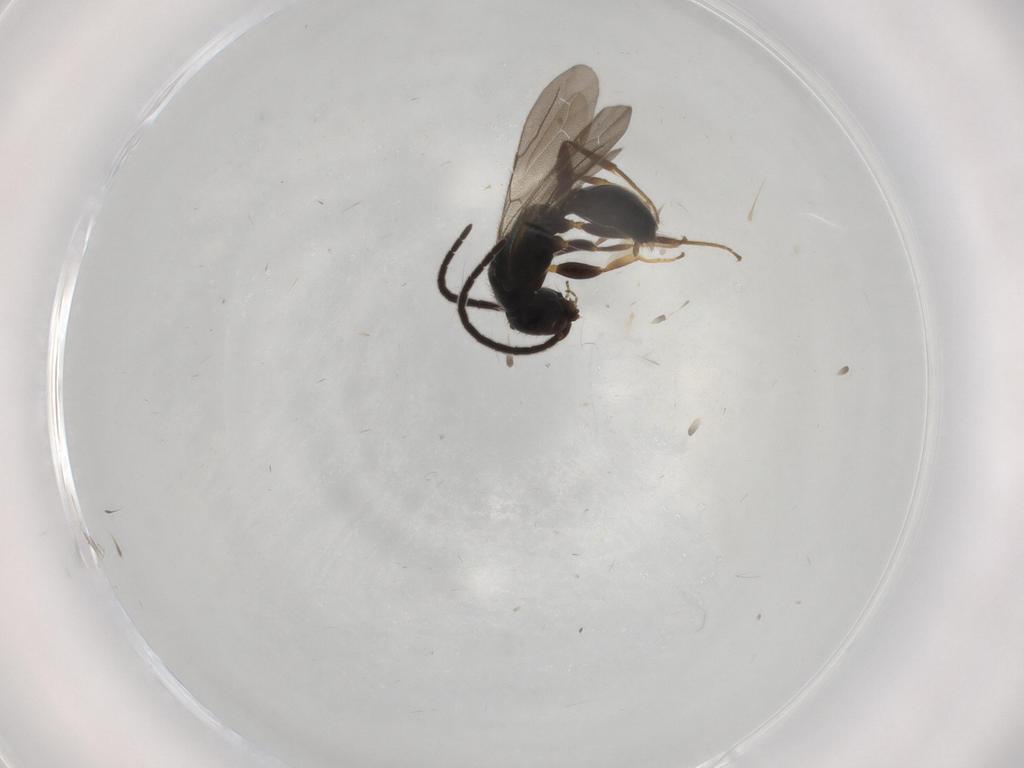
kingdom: Animalia
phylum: Arthropoda
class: Insecta
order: Hymenoptera
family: Bethylidae
